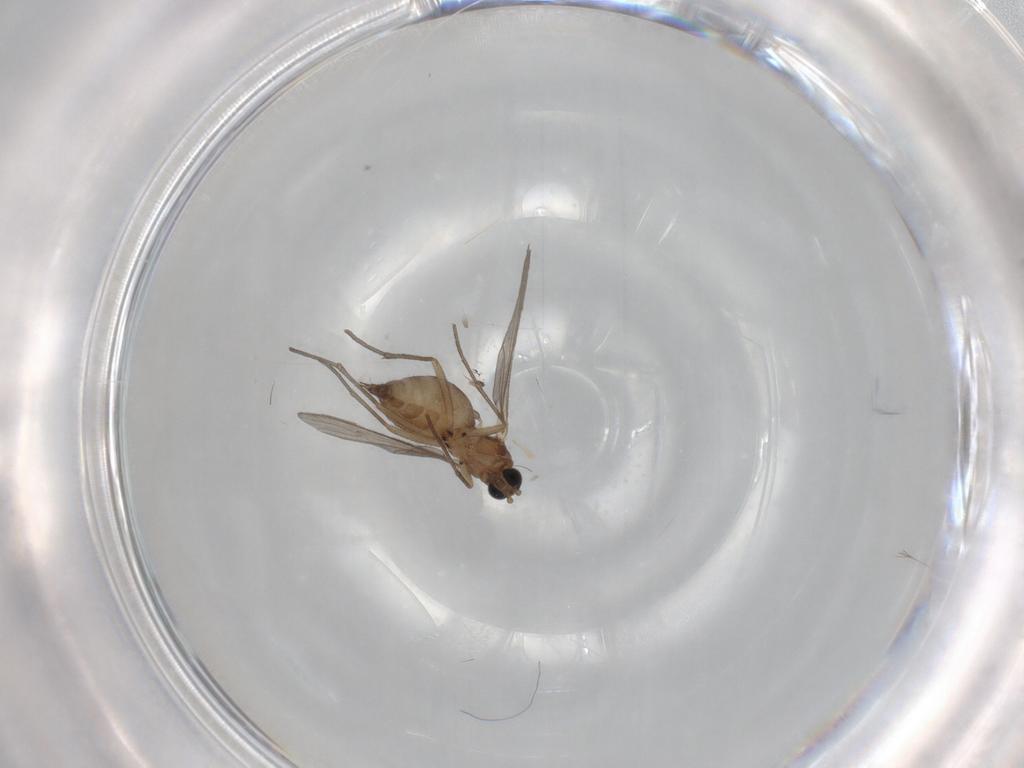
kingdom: Animalia
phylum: Arthropoda
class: Insecta
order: Diptera
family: Sciaridae
